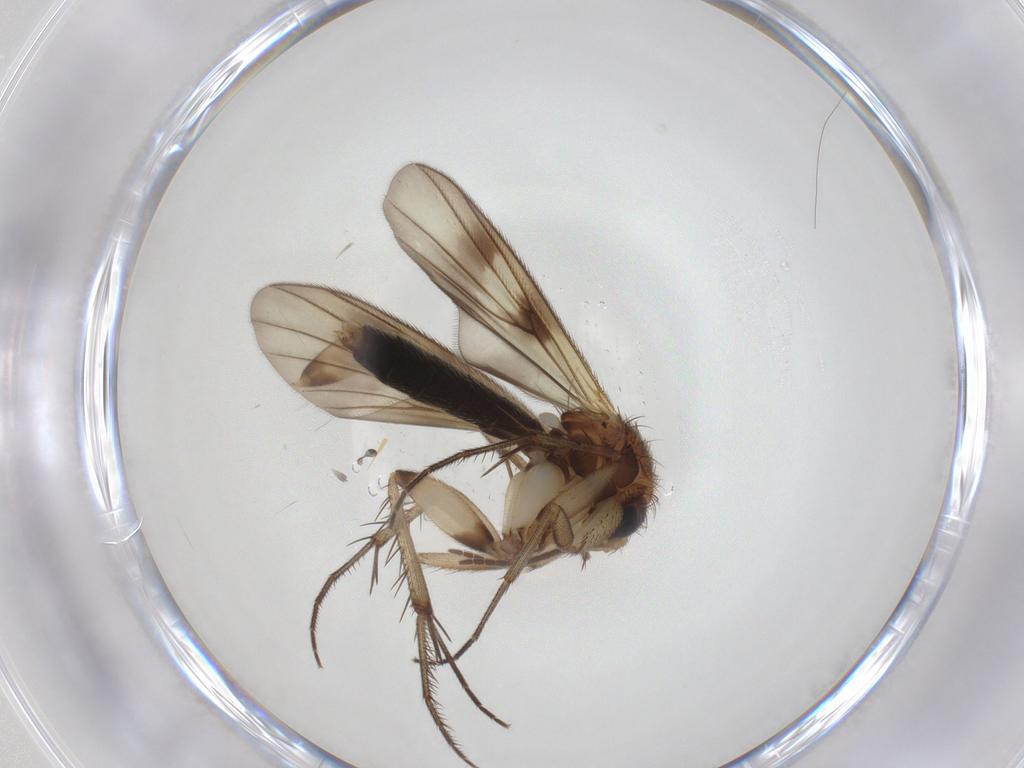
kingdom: Animalia
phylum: Arthropoda
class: Insecta
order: Diptera
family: Mycetophilidae
